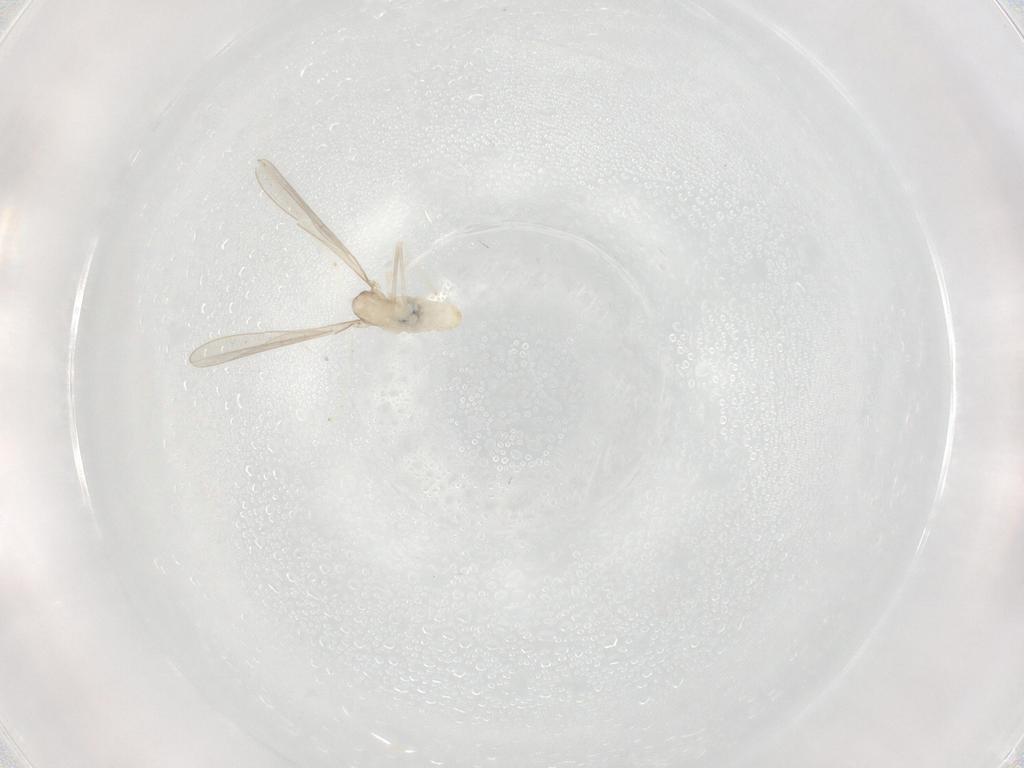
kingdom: Animalia
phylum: Arthropoda
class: Insecta
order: Diptera
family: Cecidomyiidae
